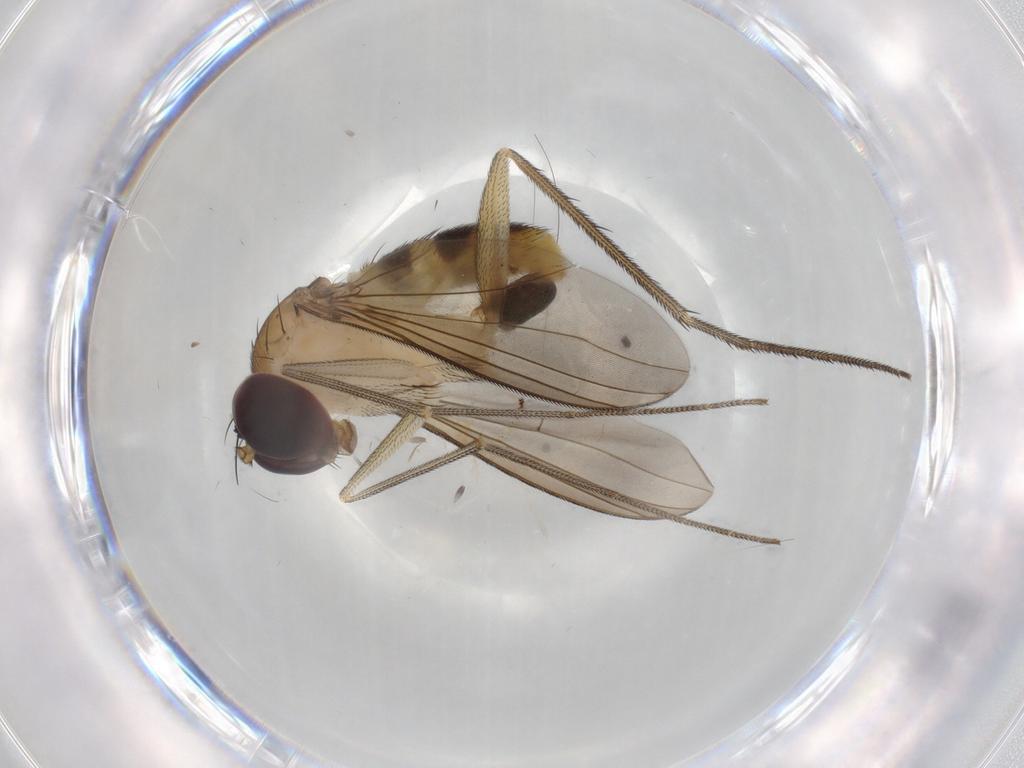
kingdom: Animalia
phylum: Arthropoda
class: Insecta
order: Diptera
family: Dolichopodidae
